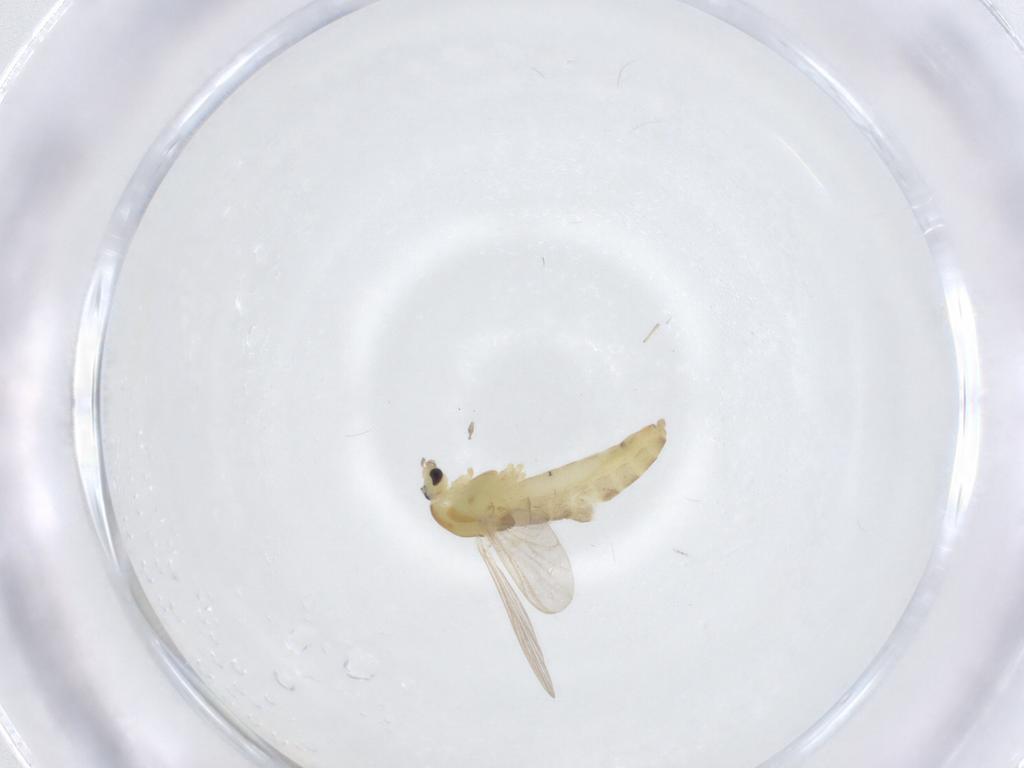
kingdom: Animalia
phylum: Arthropoda
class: Insecta
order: Diptera
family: Chironomidae
